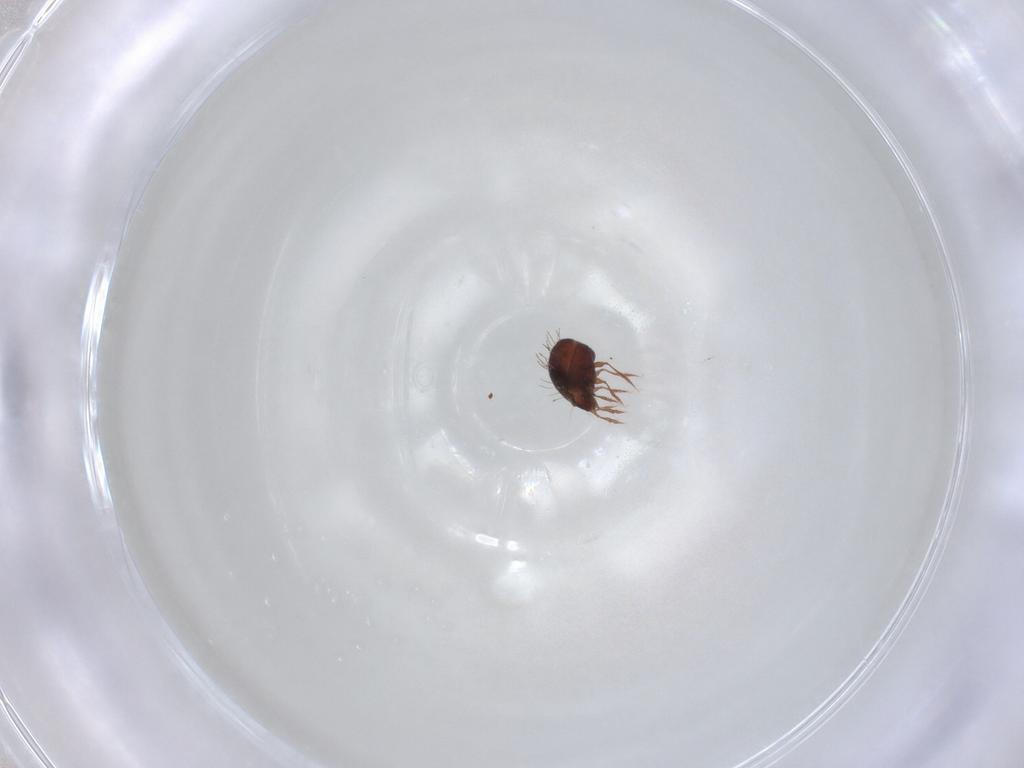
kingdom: Animalia
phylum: Arthropoda
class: Arachnida
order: Sarcoptiformes
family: Caloppiidae
